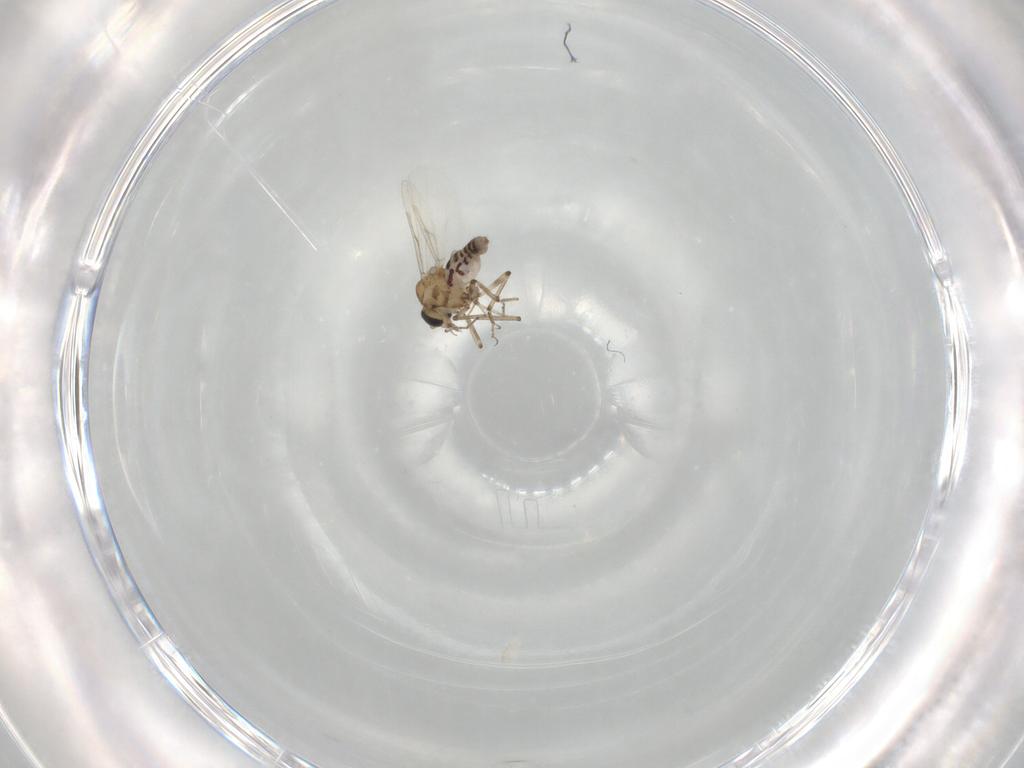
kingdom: Animalia
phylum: Arthropoda
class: Insecta
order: Diptera
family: Ceratopogonidae
